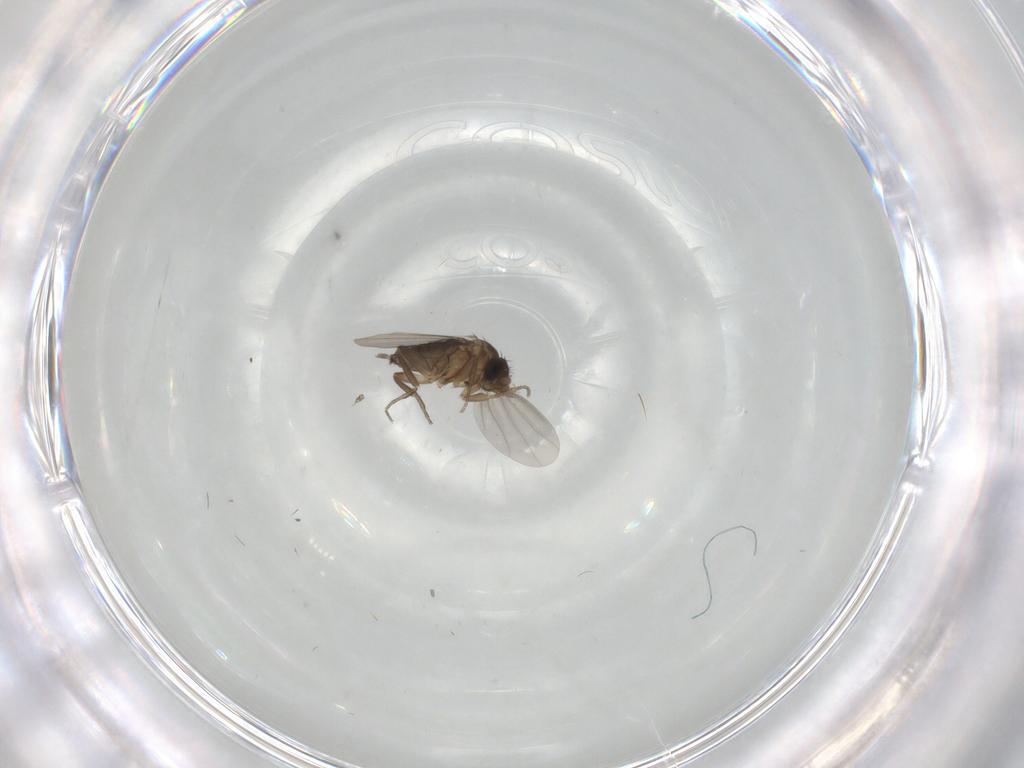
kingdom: Animalia
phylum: Arthropoda
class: Insecta
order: Diptera
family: Phoridae
